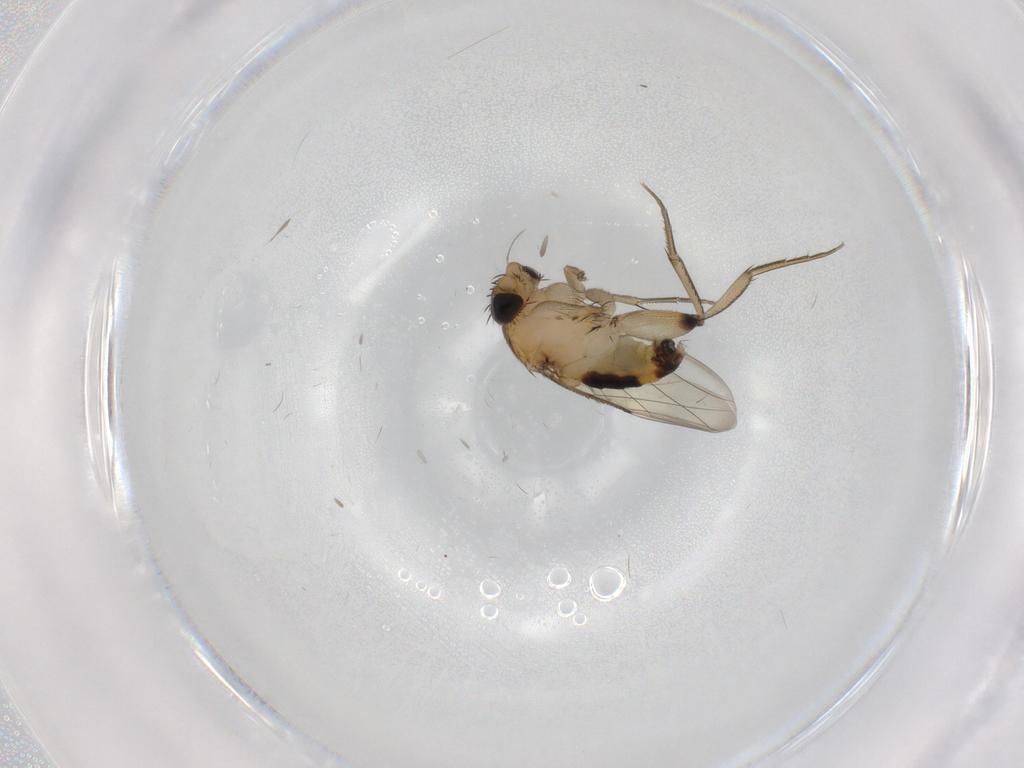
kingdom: Animalia
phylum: Arthropoda
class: Insecta
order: Diptera
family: Phoridae
